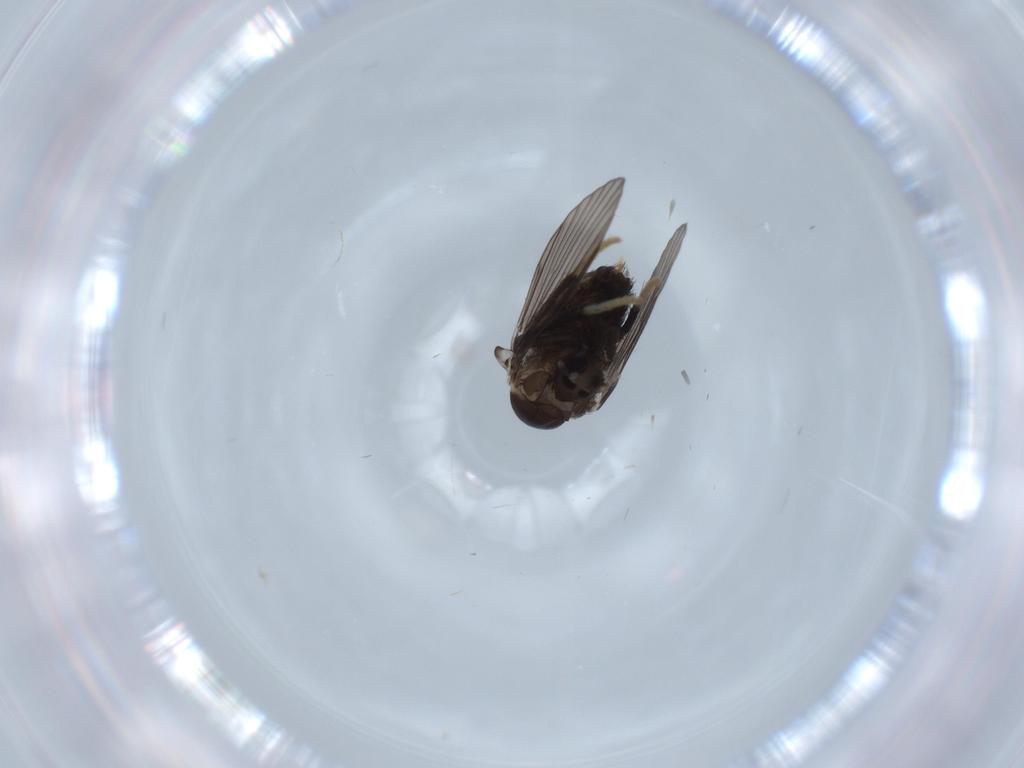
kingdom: Animalia
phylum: Arthropoda
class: Insecta
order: Diptera
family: Psychodidae
